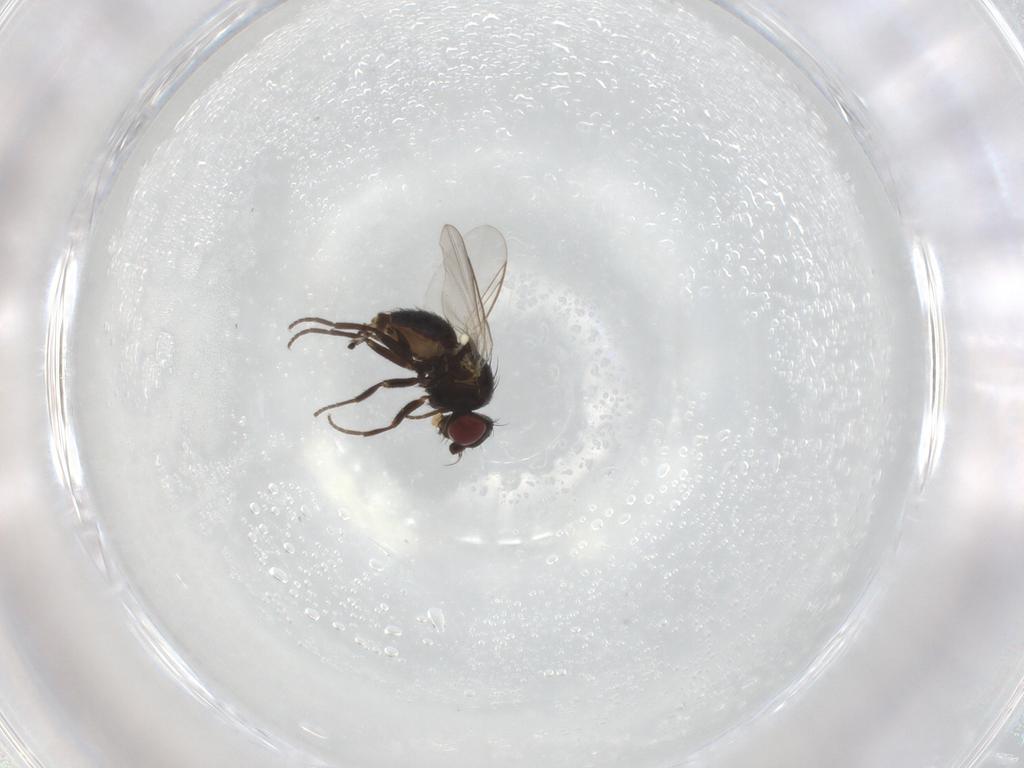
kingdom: Animalia
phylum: Arthropoda
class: Insecta
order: Diptera
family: Agromyzidae
